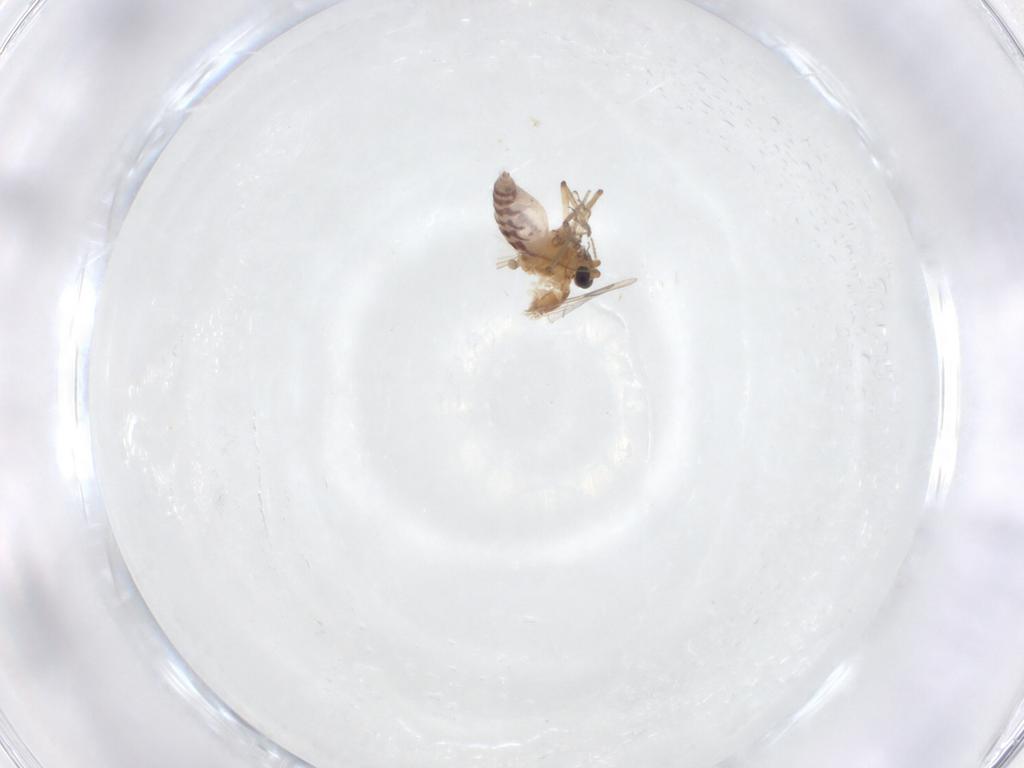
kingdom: Animalia
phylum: Arthropoda
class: Insecta
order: Diptera
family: Ceratopogonidae
